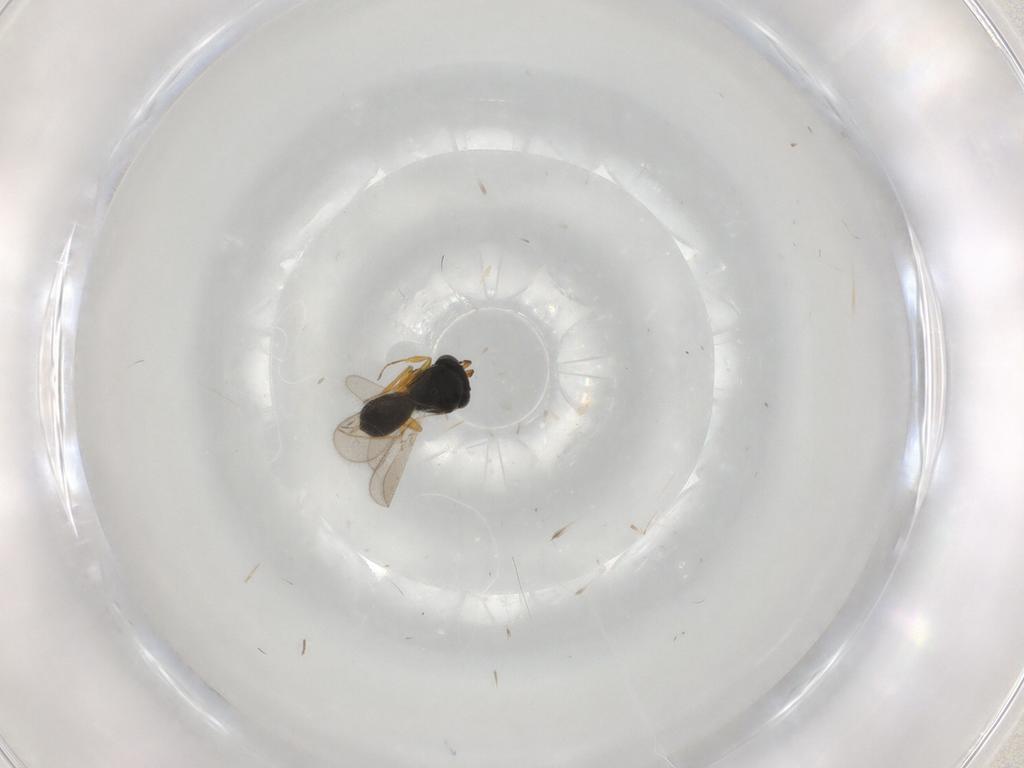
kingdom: Animalia
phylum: Arthropoda
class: Insecta
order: Hymenoptera
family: Scelionidae
